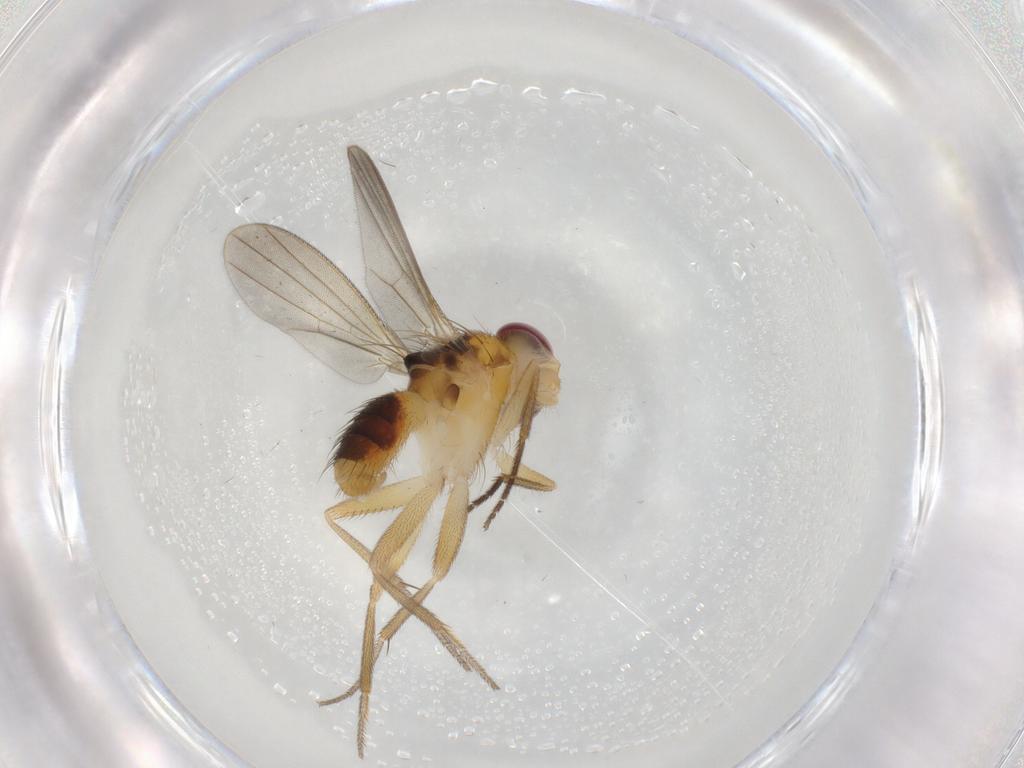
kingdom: Animalia
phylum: Arthropoda
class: Insecta
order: Diptera
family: Clusiidae
